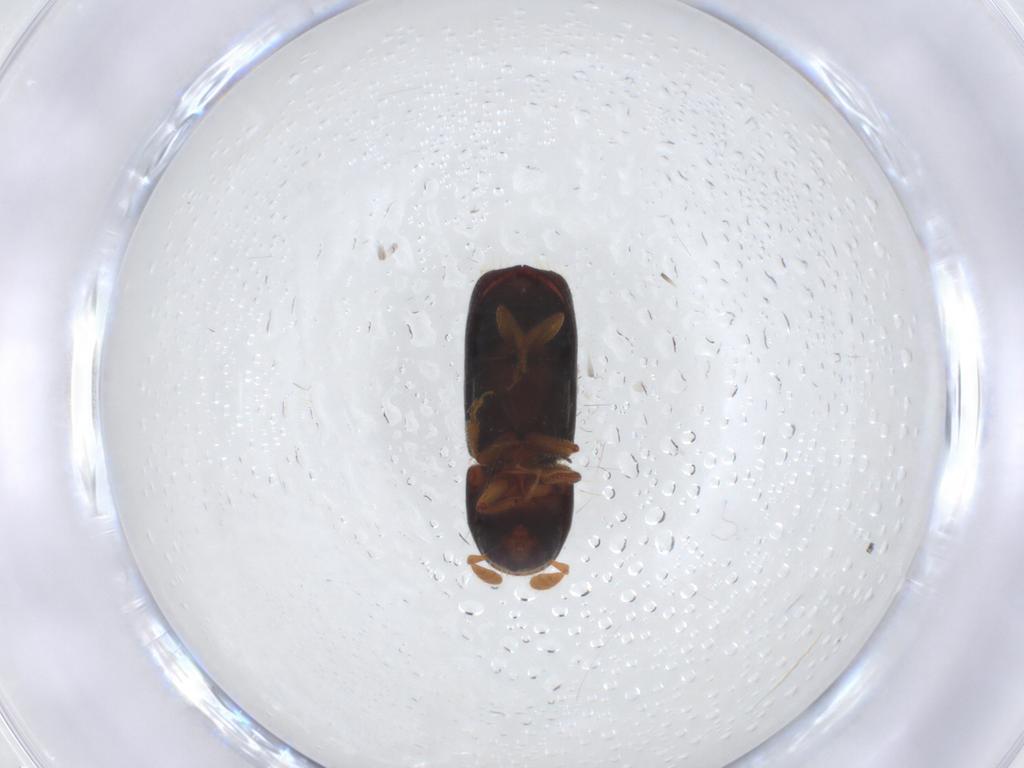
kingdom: Animalia
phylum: Arthropoda
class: Insecta
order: Coleoptera
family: Curculionidae
